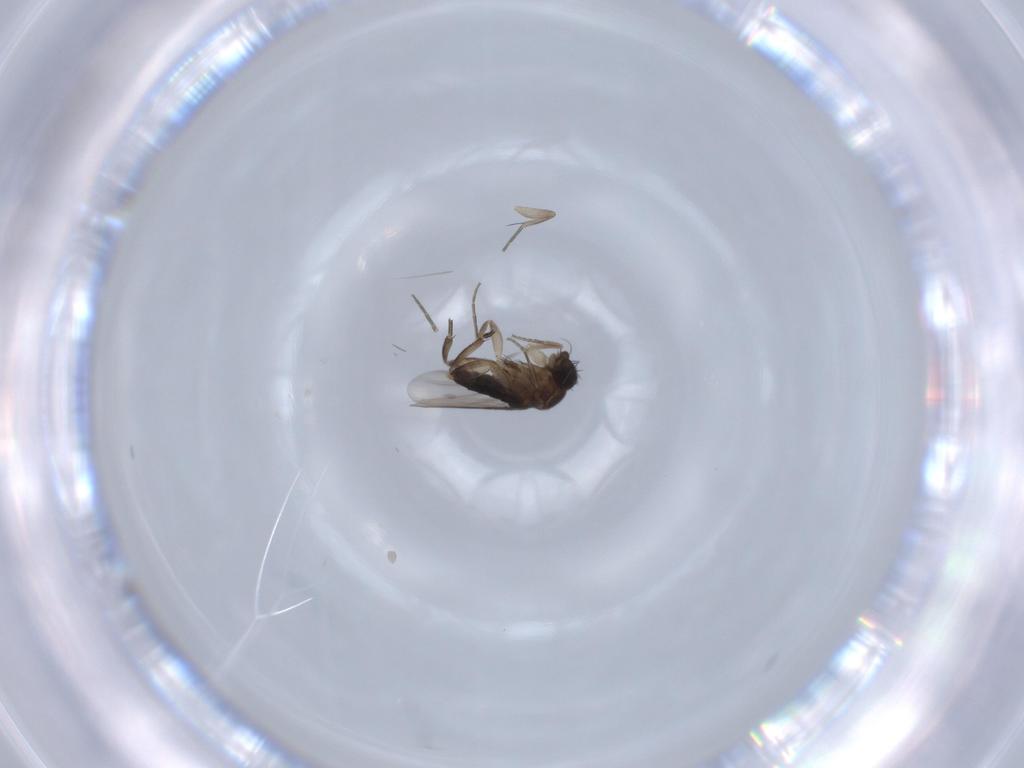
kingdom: Animalia
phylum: Arthropoda
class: Insecta
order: Diptera
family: Phoridae
